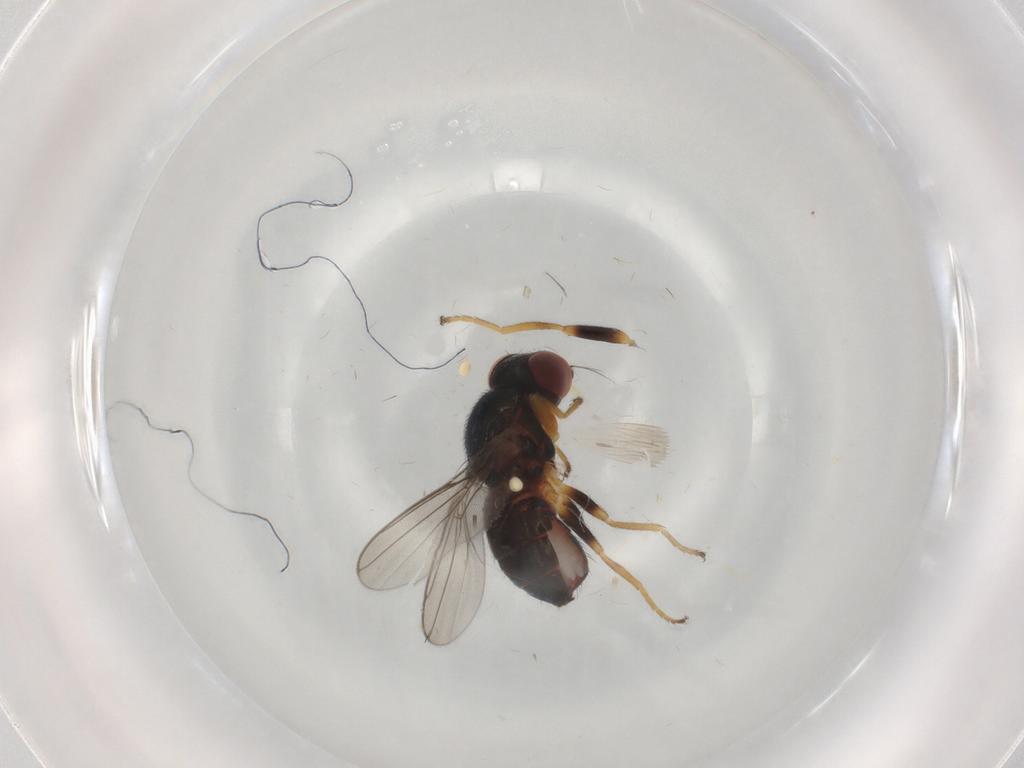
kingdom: Animalia
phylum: Arthropoda
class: Insecta
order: Diptera
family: Chloropidae
